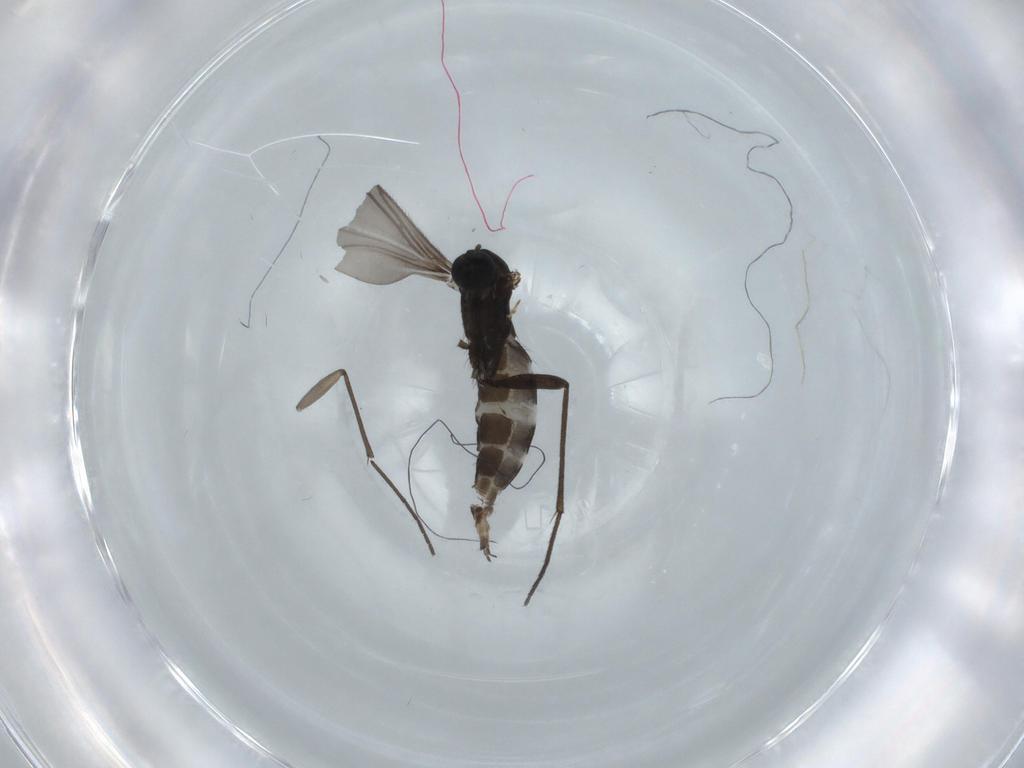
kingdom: Animalia
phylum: Arthropoda
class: Insecta
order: Diptera
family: Sciaridae
